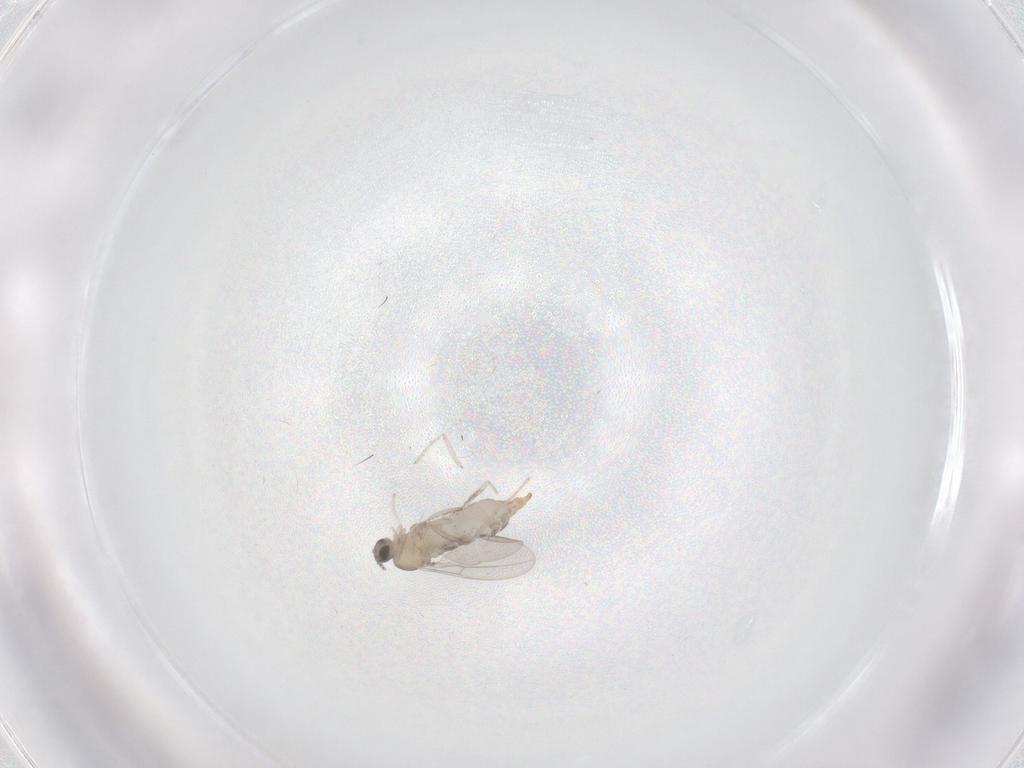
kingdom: Animalia
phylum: Arthropoda
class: Insecta
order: Diptera
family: Cecidomyiidae
